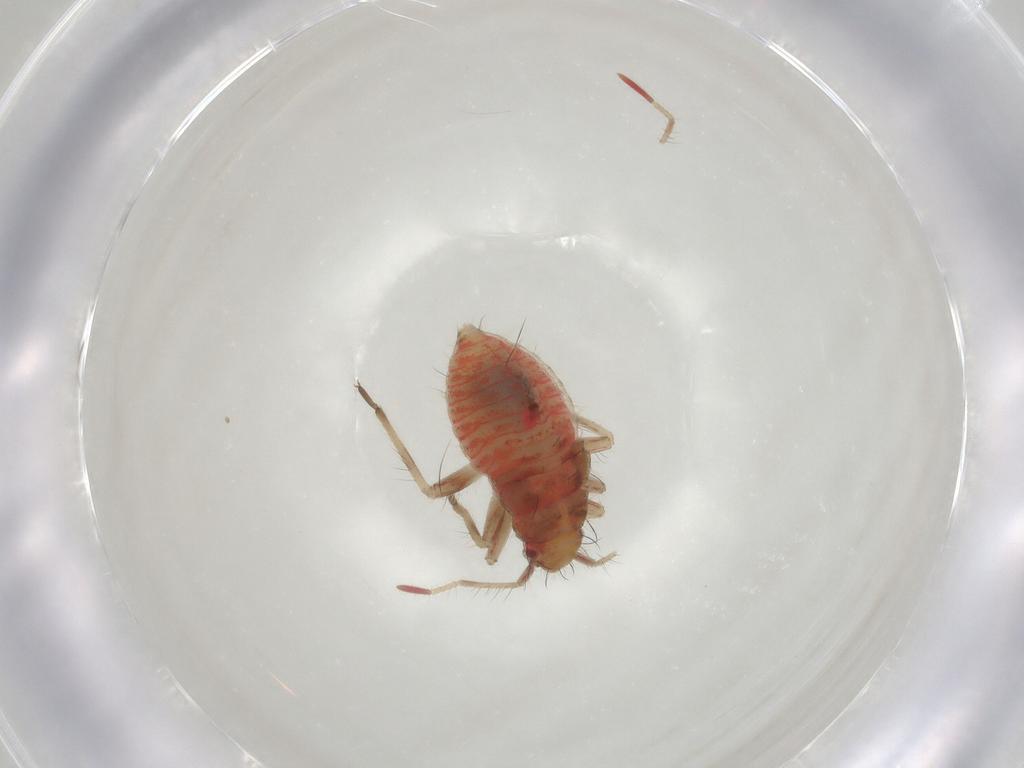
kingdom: Animalia
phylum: Arthropoda
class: Insecta
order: Hemiptera
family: Miridae
